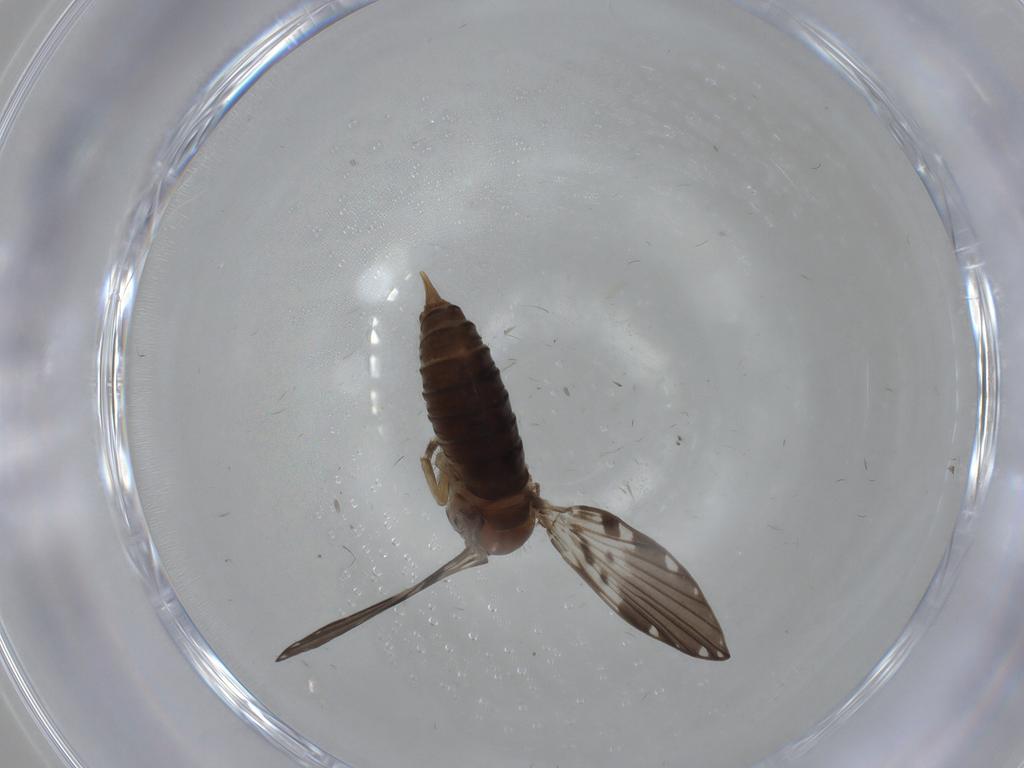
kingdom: Animalia
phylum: Arthropoda
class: Insecta
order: Diptera
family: Psychodidae
